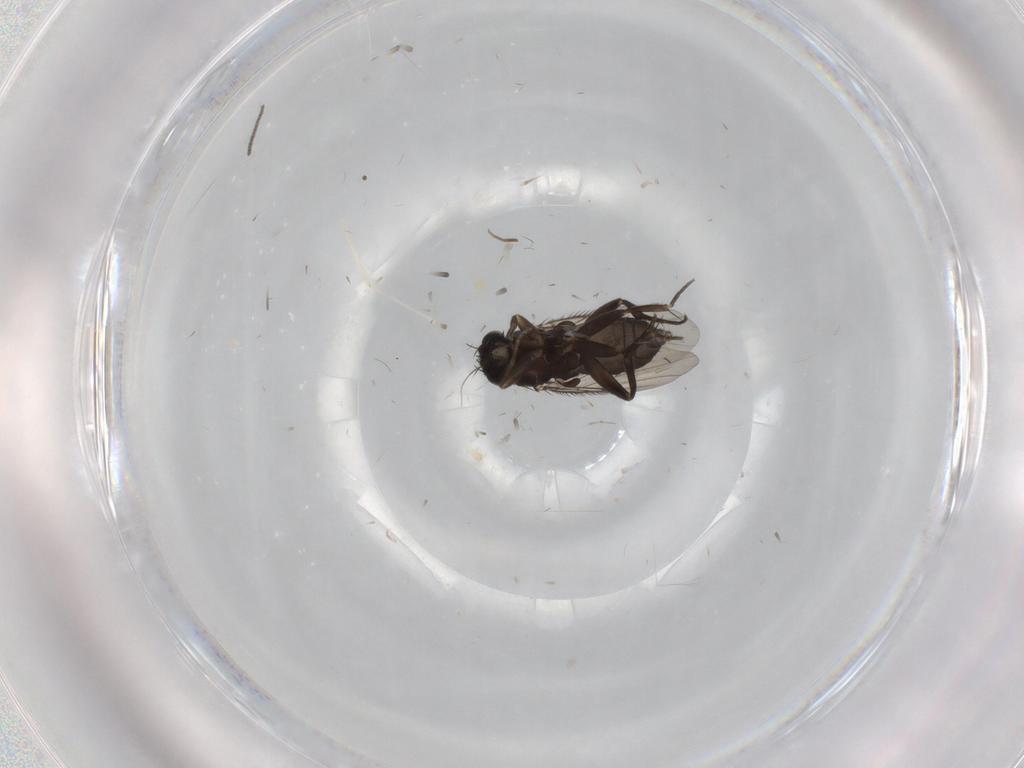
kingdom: Animalia
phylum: Arthropoda
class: Insecta
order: Diptera
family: Phoridae
